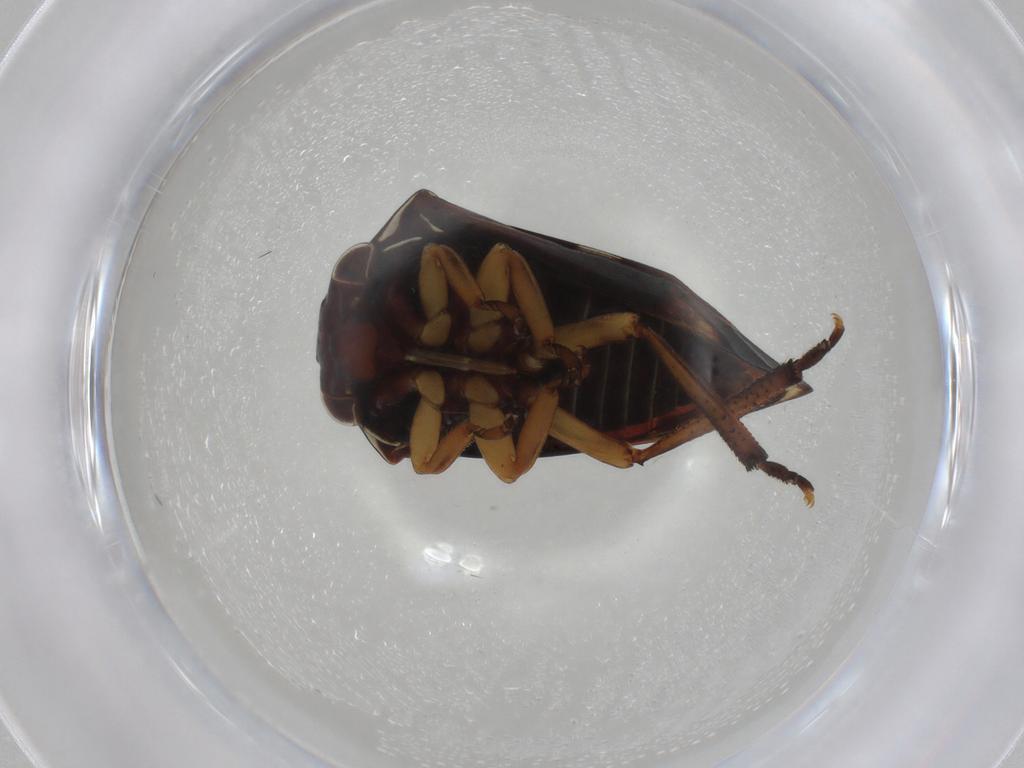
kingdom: Animalia
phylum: Arthropoda
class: Insecta
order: Hemiptera
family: Membracidae
